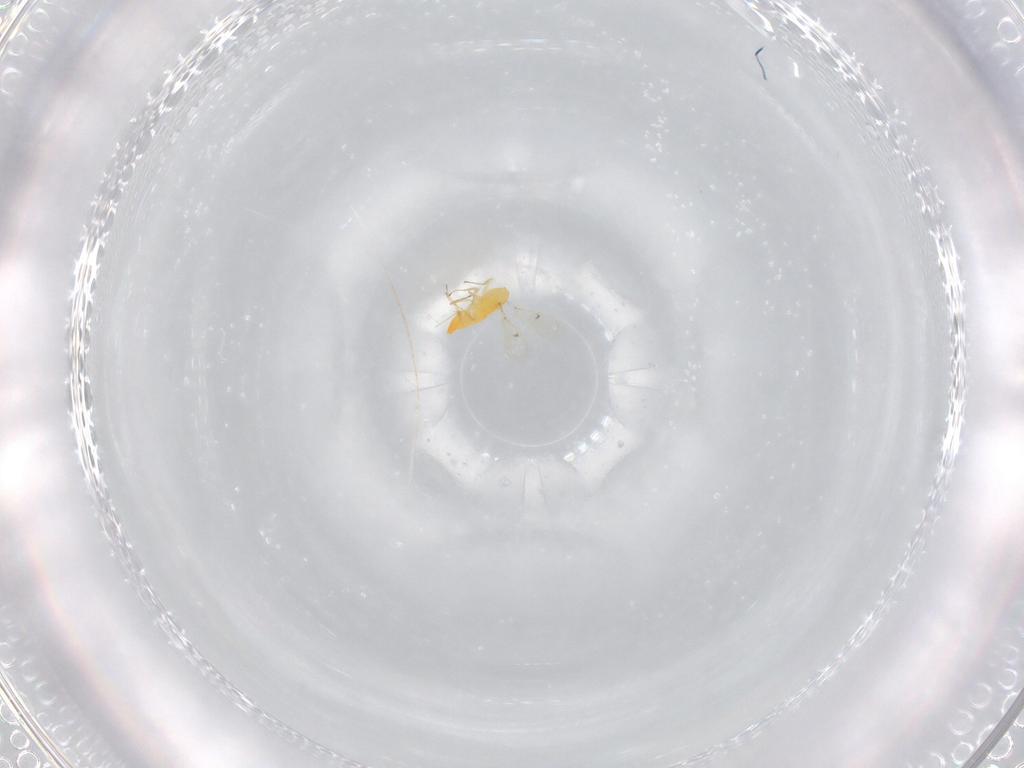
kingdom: Animalia
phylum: Arthropoda
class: Insecta
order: Hymenoptera
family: Trichogrammatidae
